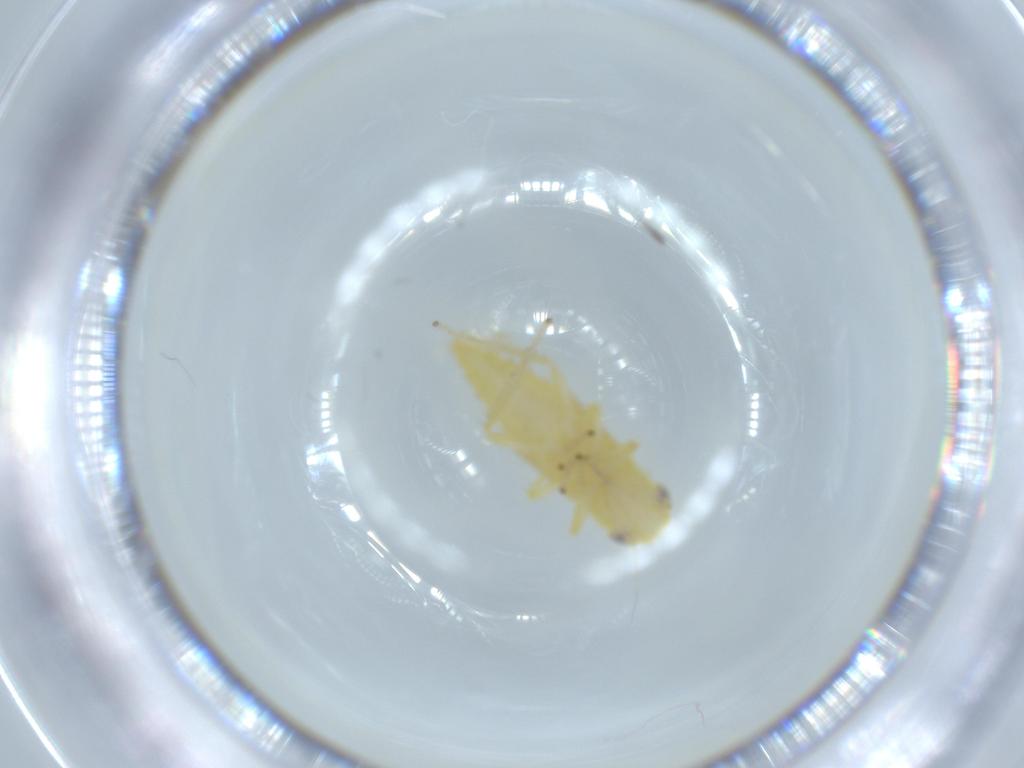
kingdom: Animalia
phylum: Arthropoda
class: Insecta
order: Hemiptera
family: Cicadellidae
